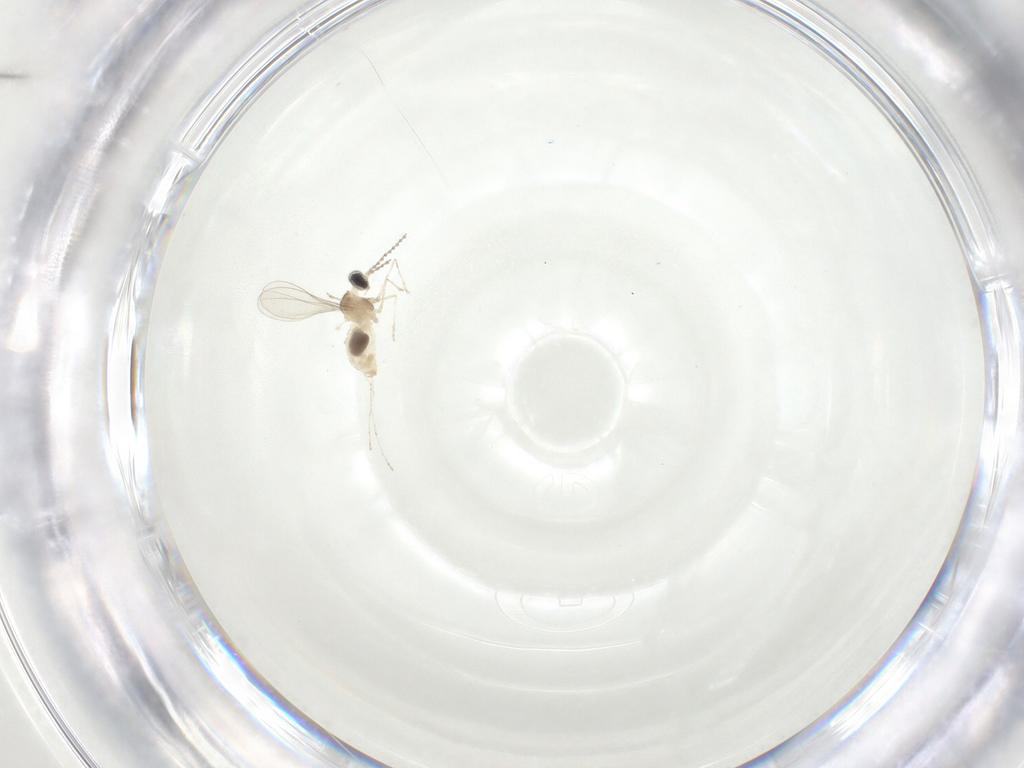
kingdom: Animalia
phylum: Arthropoda
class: Insecta
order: Diptera
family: Cecidomyiidae
